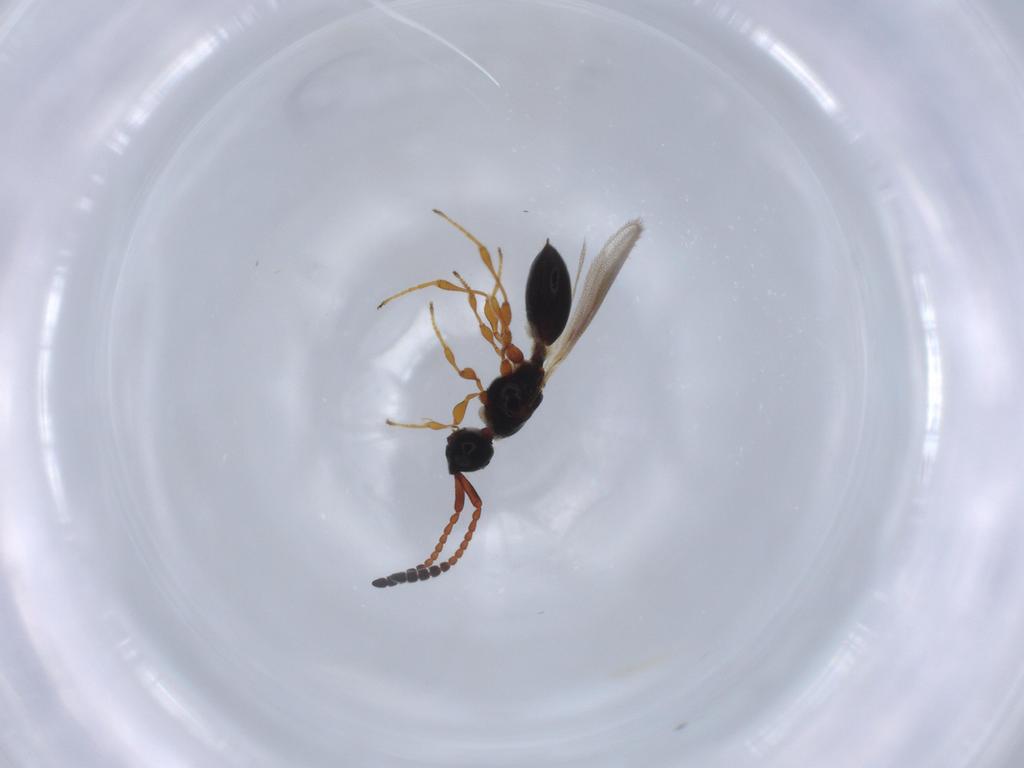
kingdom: Animalia
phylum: Arthropoda
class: Insecta
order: Hymenoptera
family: Diapriidae
